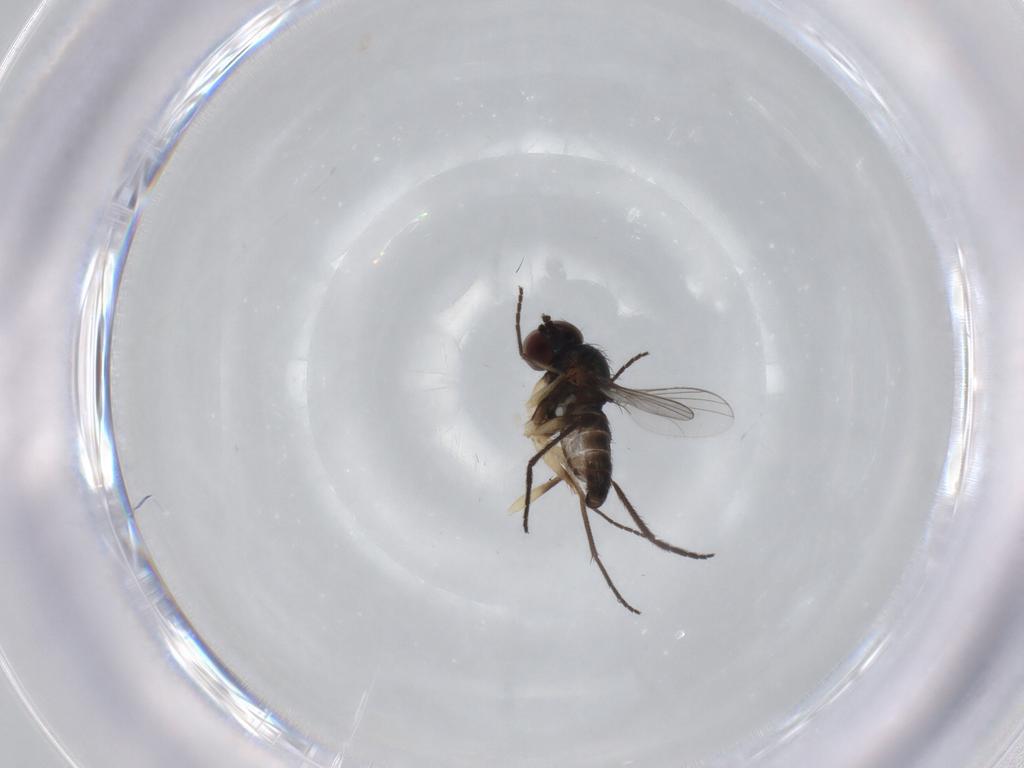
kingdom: Animalia
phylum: Arthropoda
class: Insecta
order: Diptera
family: Dolichopodidae
